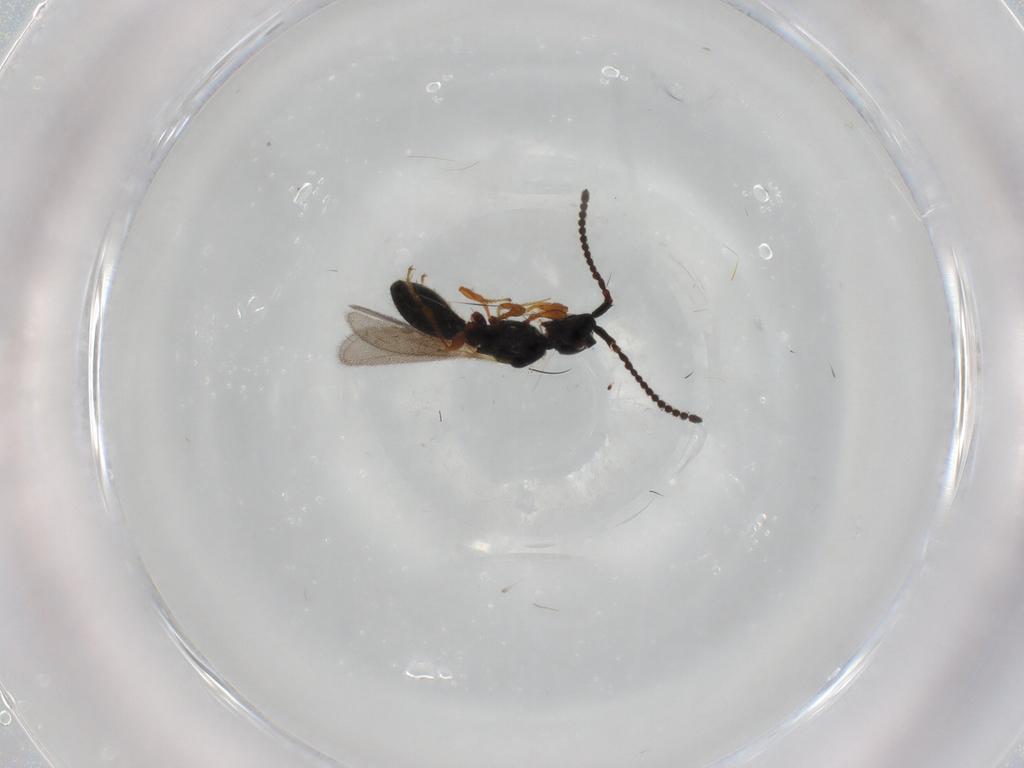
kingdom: Animalia
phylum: Arthropoda
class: Insecta
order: Hymenoptera
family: Diapriidae
